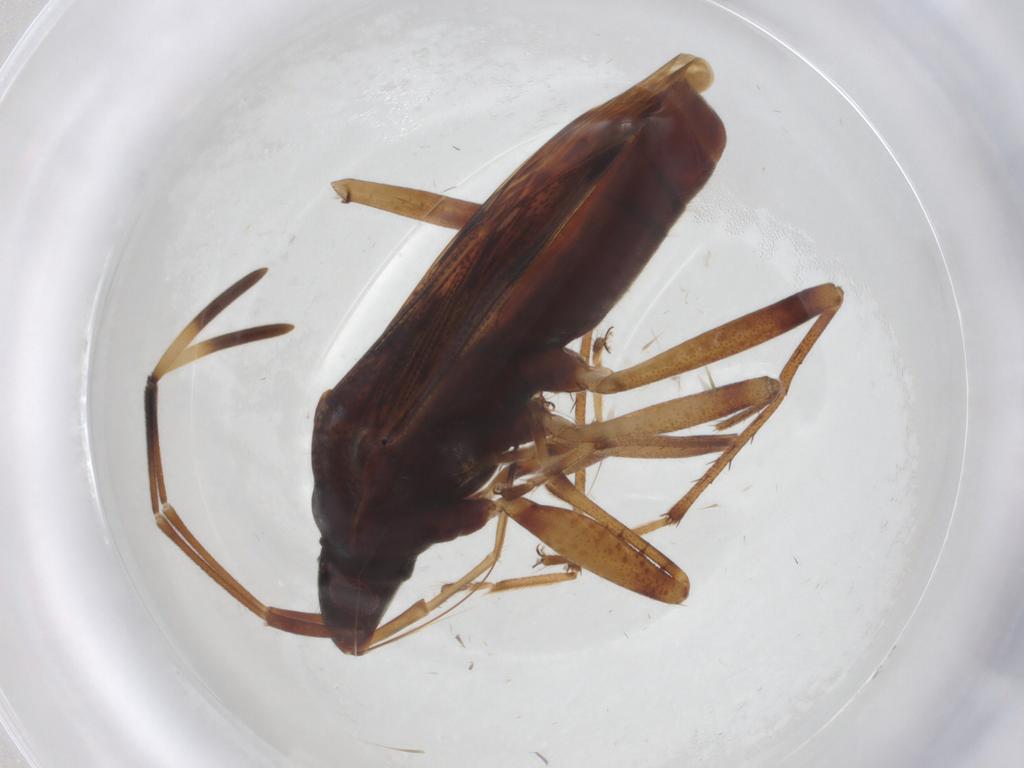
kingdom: Animalia
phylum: Arthropoda
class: Insecta
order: Hemiptera
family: Rhyparochromidae
